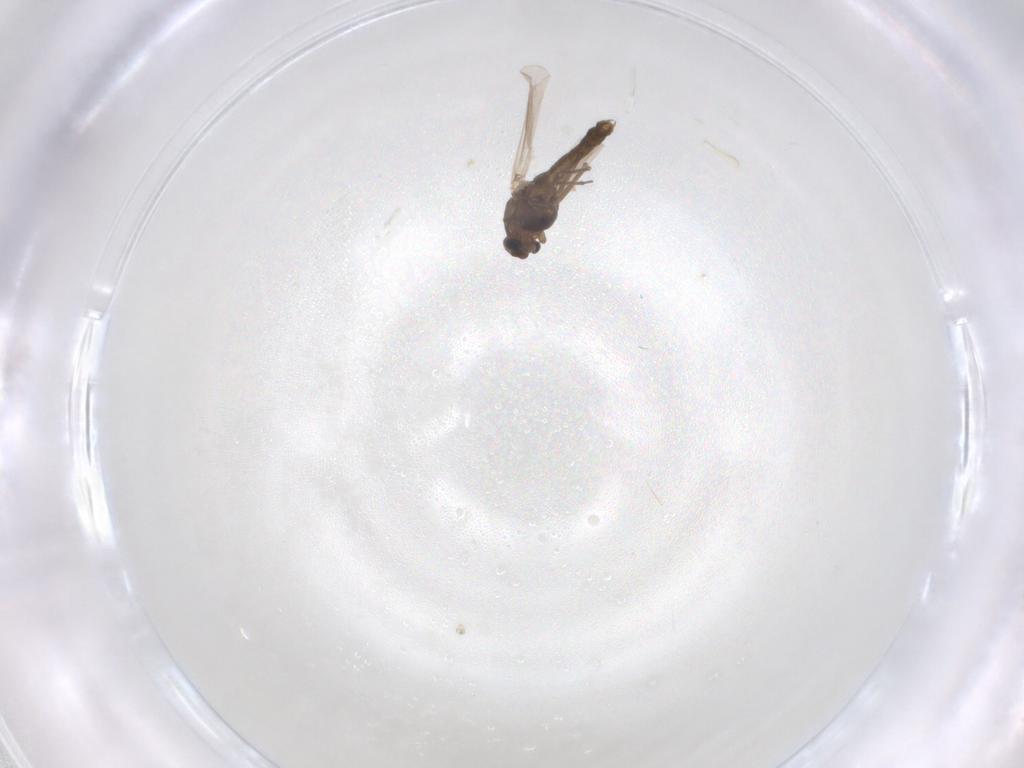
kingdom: Animalia
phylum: Arthropoda
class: Insecta
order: Diptera
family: Chironomidae
